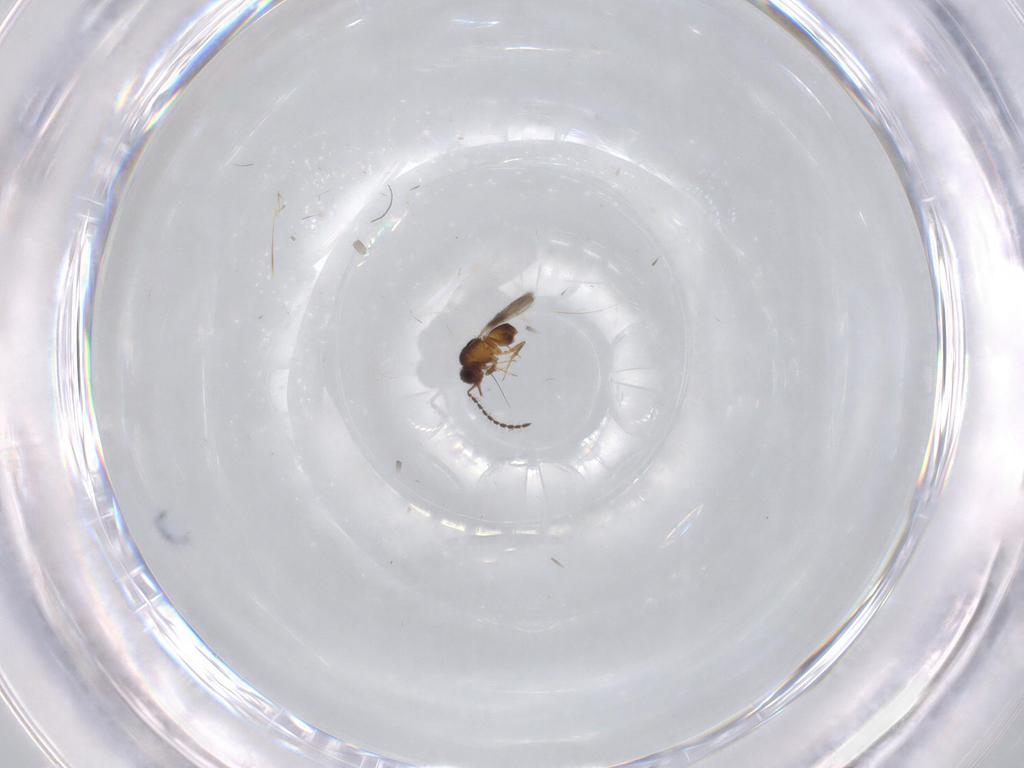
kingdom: Animalia
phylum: Arthropoda
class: Insecta
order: Hymenoptera
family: Ceraphronidae
